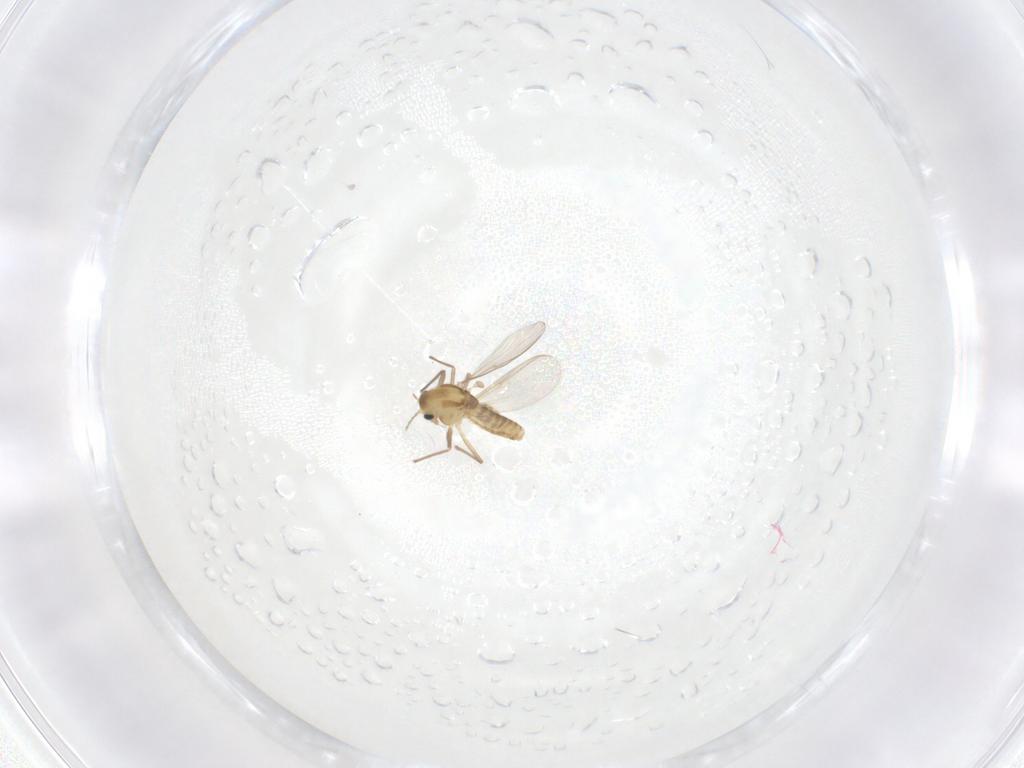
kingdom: Animalia
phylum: Arthropoda
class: Insecta
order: Diptera
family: Chironomidae
